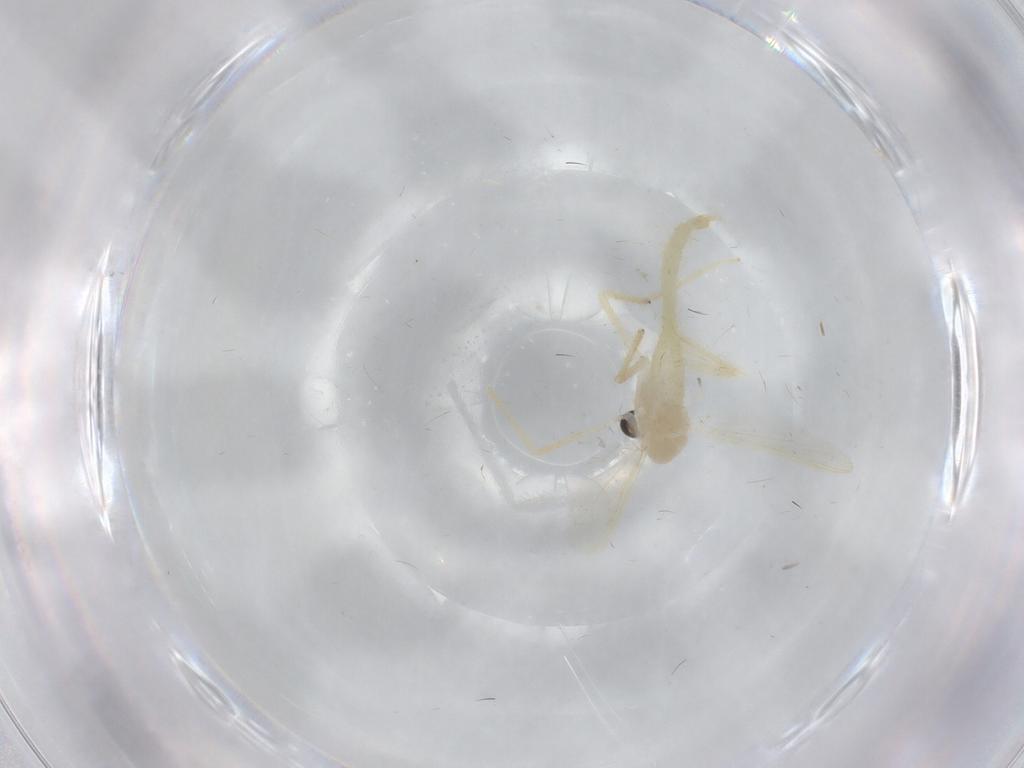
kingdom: Animalia
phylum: Arthropoda
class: Insecta
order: Diptera
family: Chironomidae
